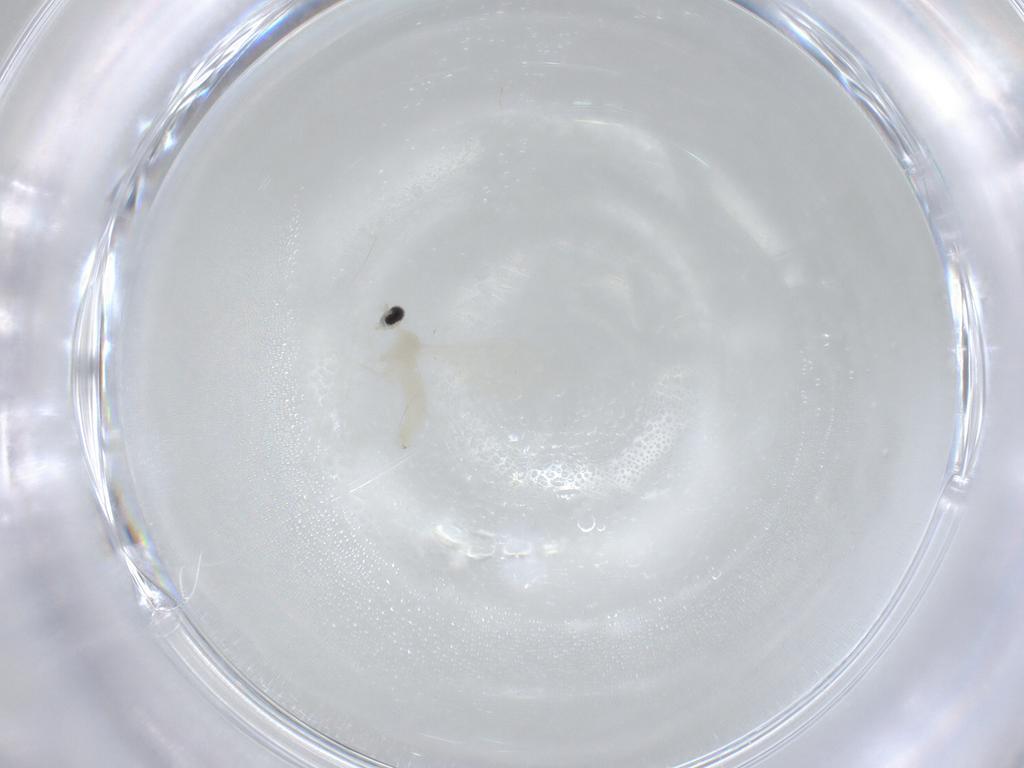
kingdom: Animalia
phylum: Arthropoda
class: Insecta
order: Diptera
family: Cecidomyiidae
